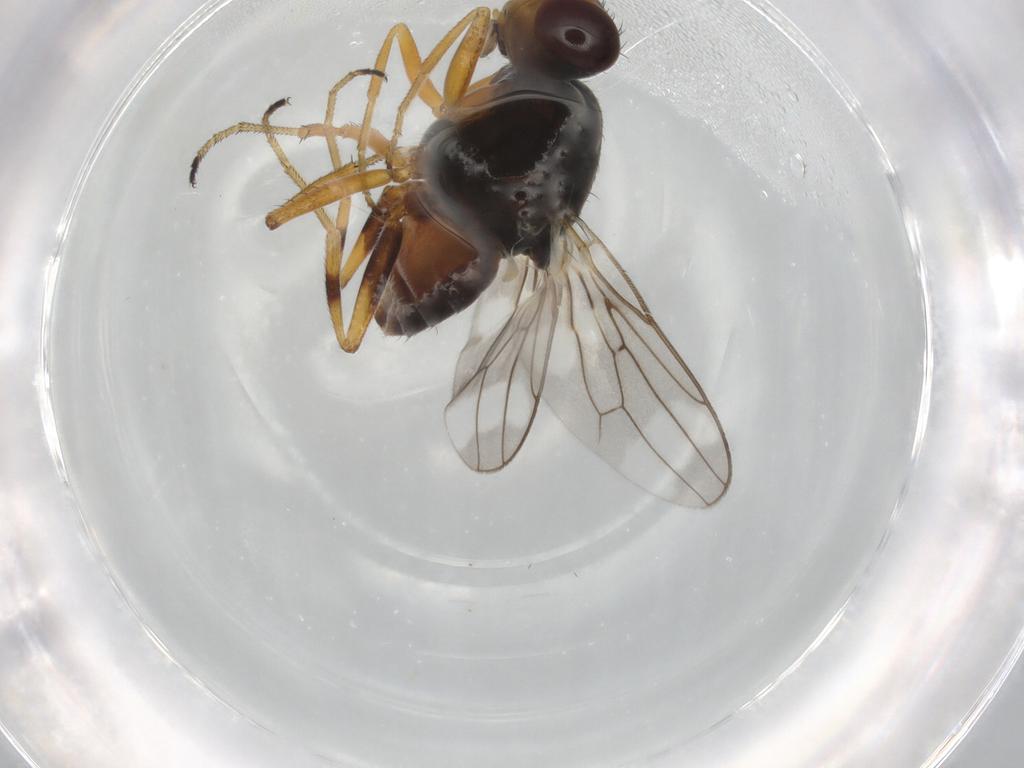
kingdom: Animalia
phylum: Arthropoda
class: Insecta
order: Diptera
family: Chloropidae
